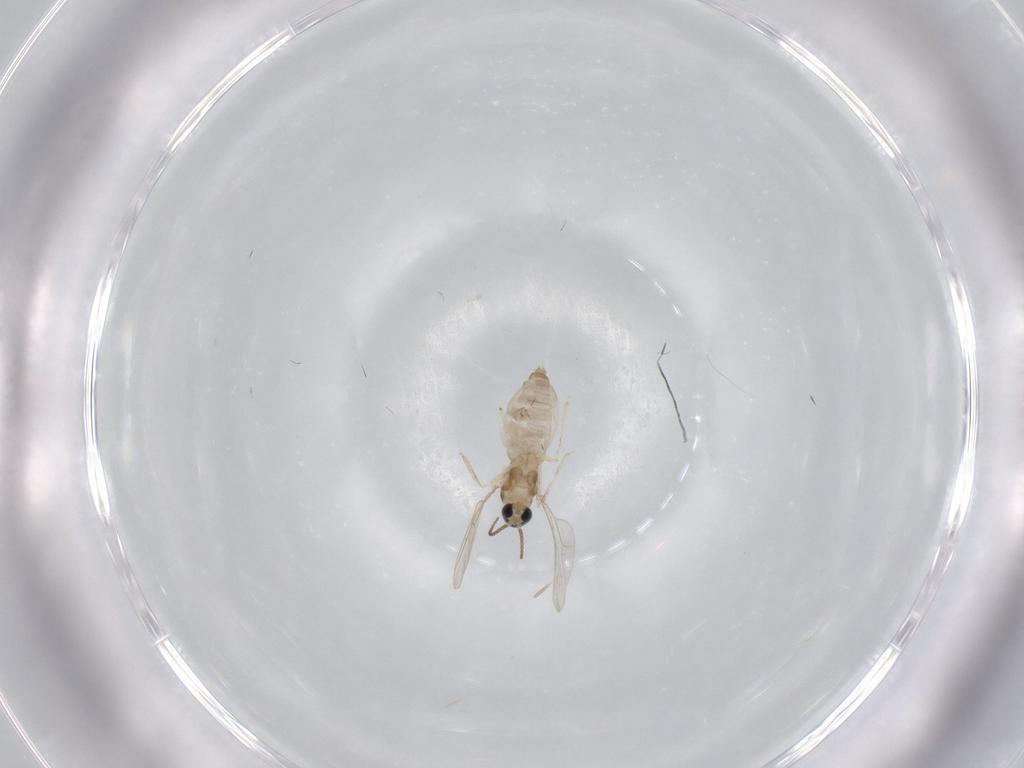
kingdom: Animalia
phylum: Arthropoda
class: Insecta
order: Diptera
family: Cecidomyiidae
